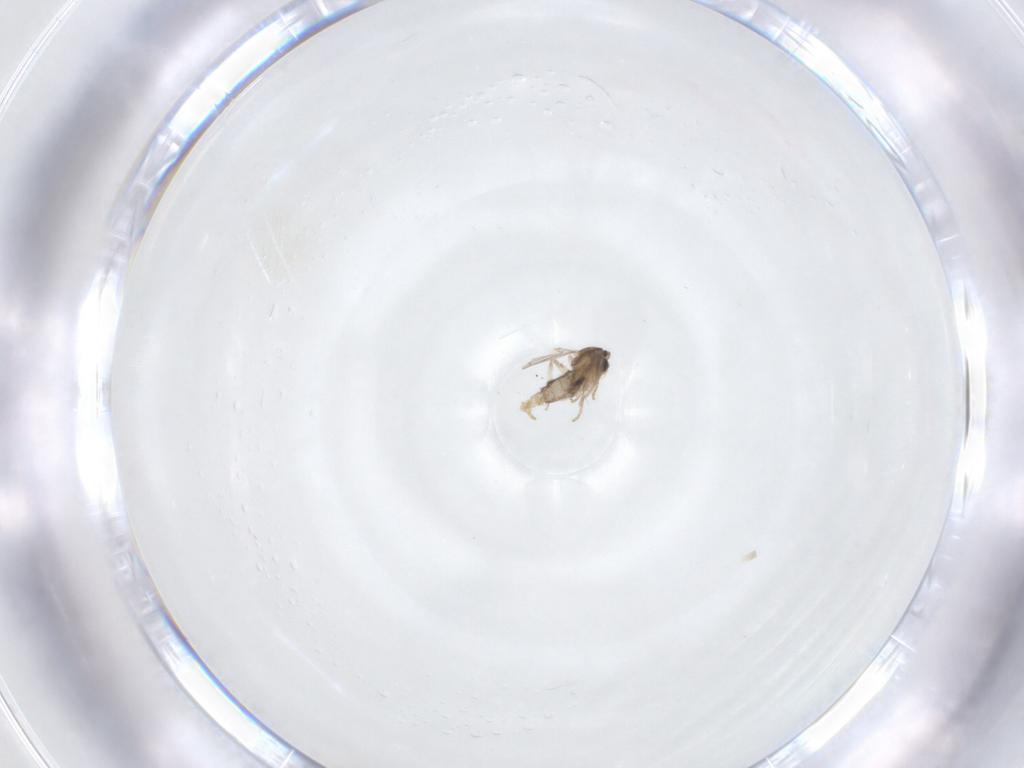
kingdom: Animalia
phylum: Arthropoda
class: Insecta
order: Diptera
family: Cecidomyiidae
